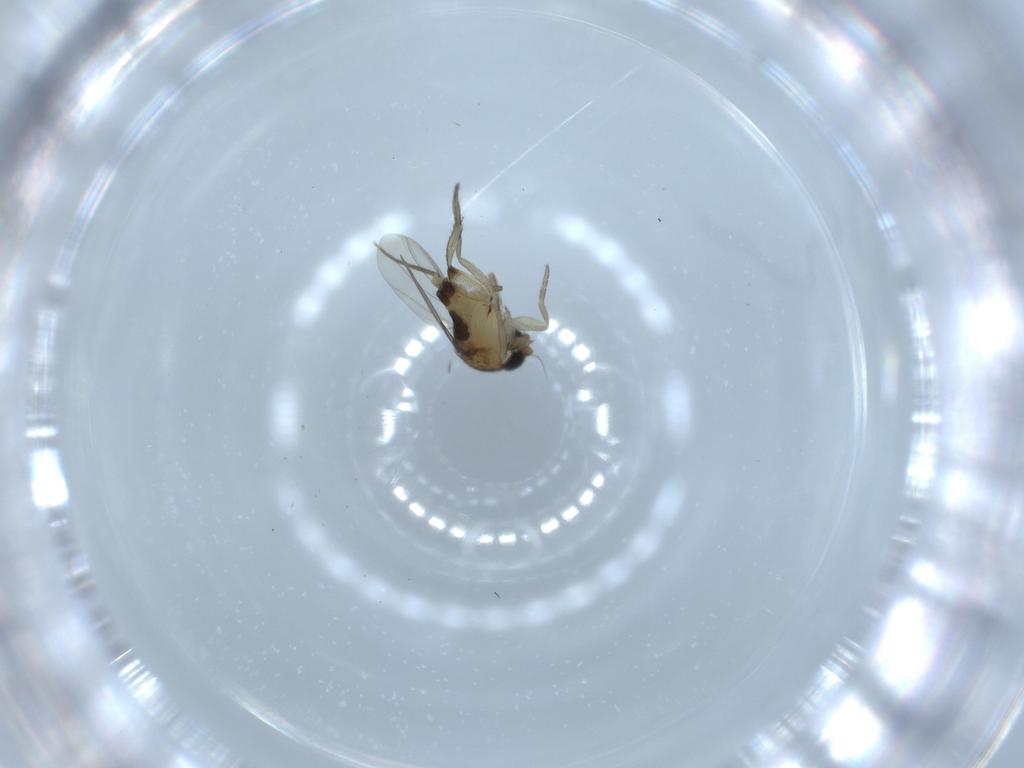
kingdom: Animalia
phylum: Arthropoda
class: Insecta
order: Diptera
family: Phoridae
